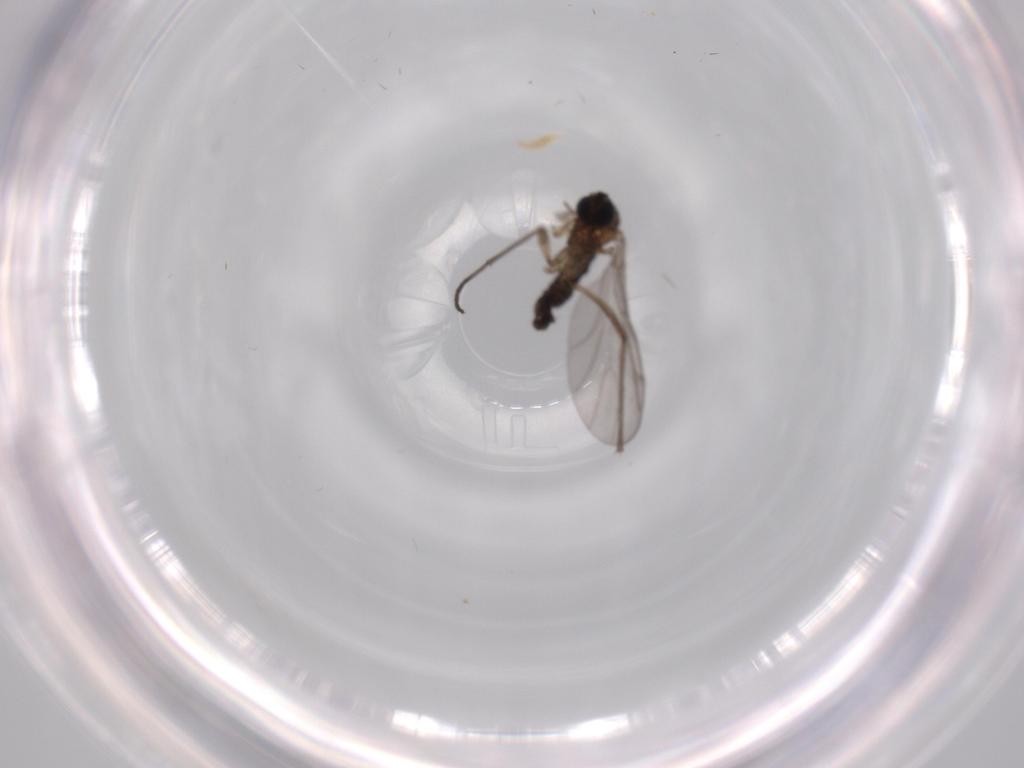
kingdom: Animalia
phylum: Arthropoda
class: Insecta
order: Diptera
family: Sciaridae
